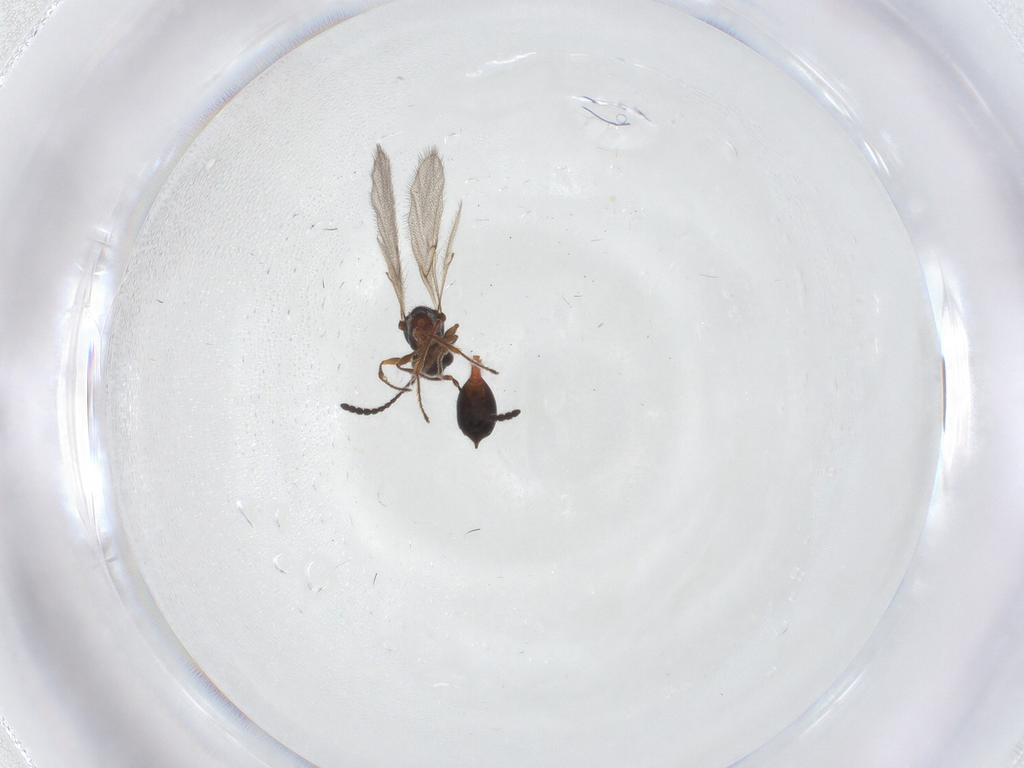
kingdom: Animalia
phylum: Arthropoda
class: Insecta
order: Hymenoptera
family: Diapriidae
